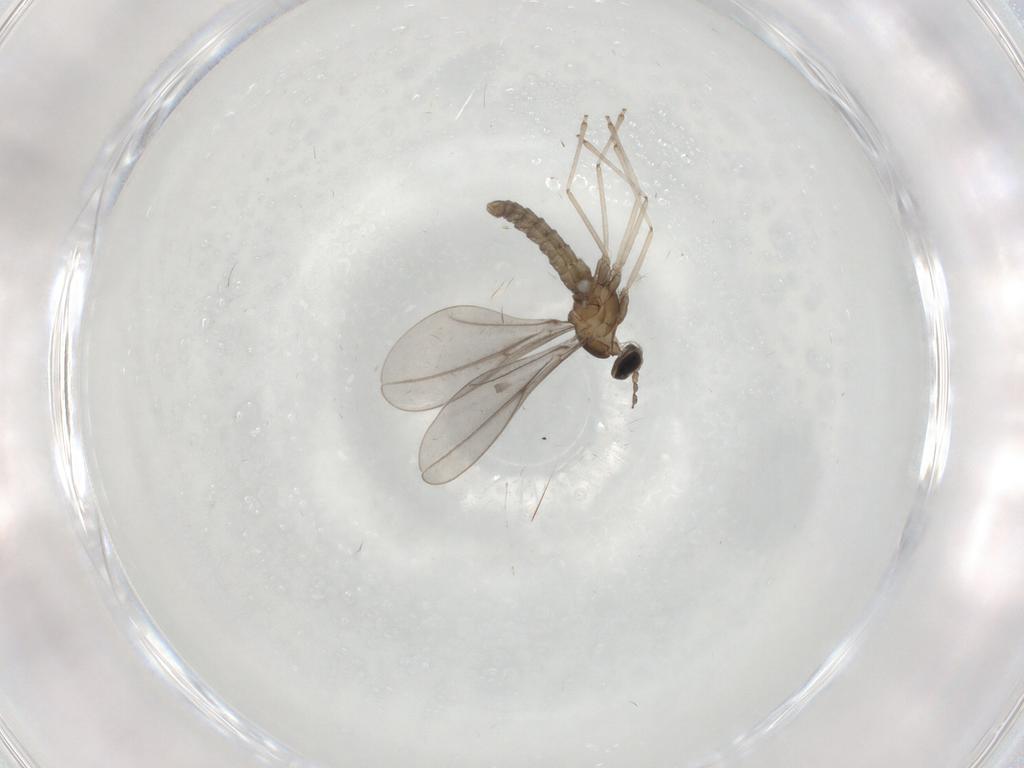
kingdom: Animalia
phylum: Arthropoda
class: Insecta
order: Diptera
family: Cecidomyiidae
